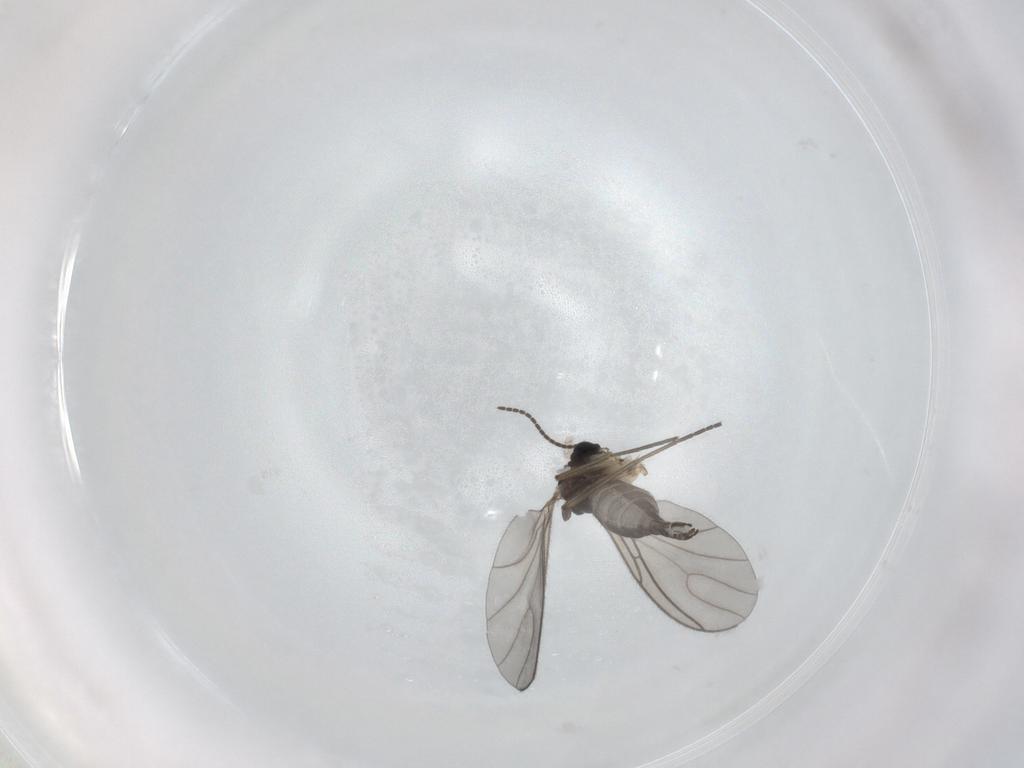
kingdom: Animalia
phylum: Arthropoda
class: Insecta
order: Diptera
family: Sciaridae
